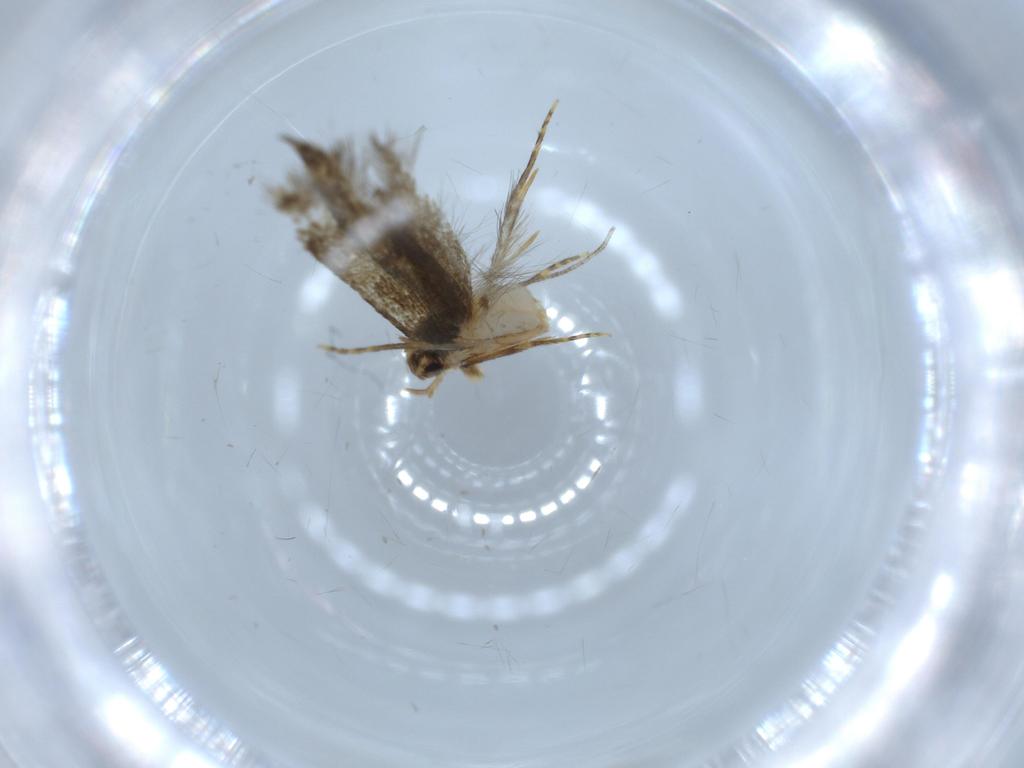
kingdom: Animalia
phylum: Arthropoda
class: Insecta
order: Lepidoptera
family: Tineidae
